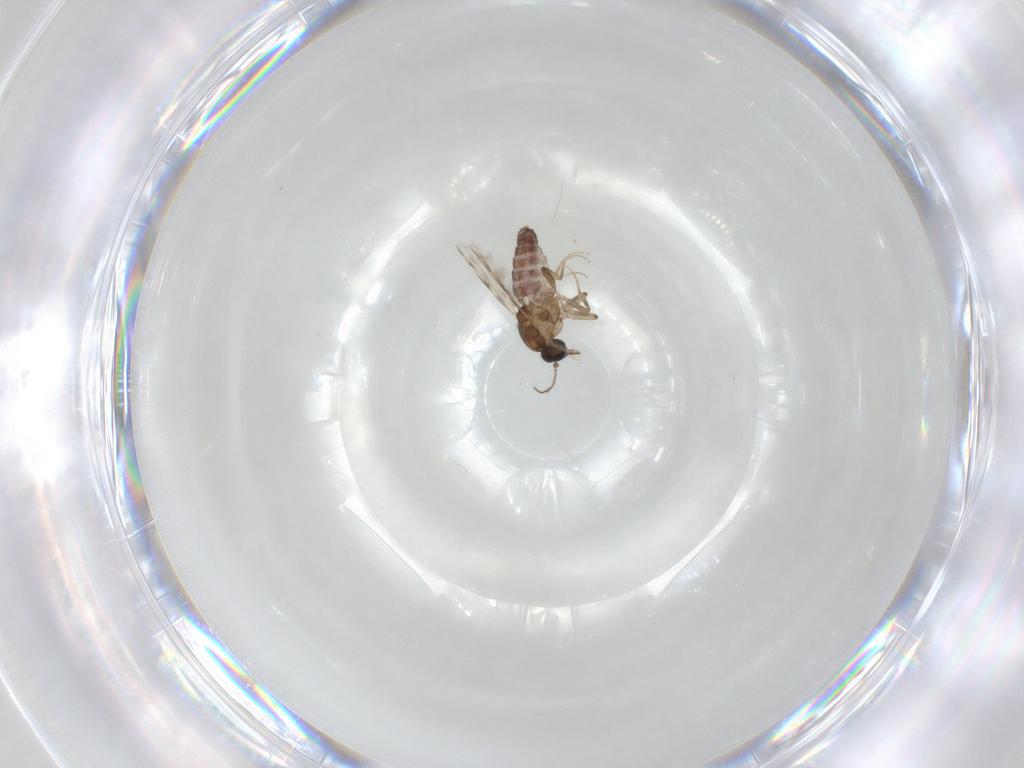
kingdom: Animalia
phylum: Arthropoda
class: Insecta
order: Diptera
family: Ceratopogonidae
